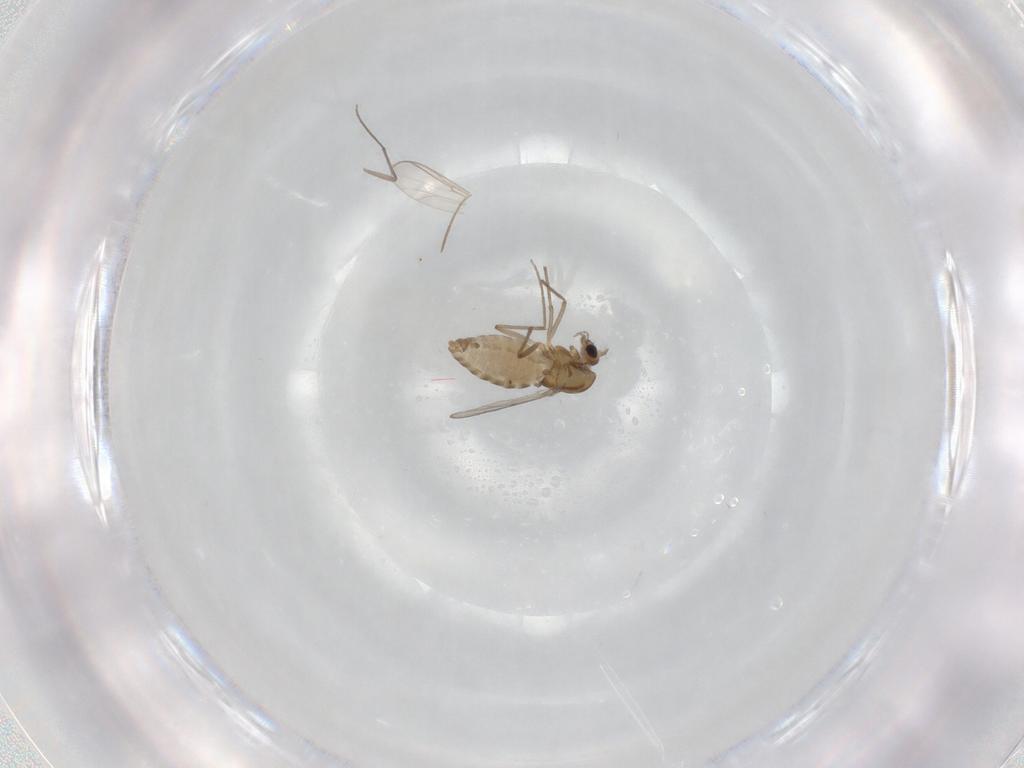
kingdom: Animalia
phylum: Arthropoda
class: Insecta
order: Diptera
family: Chironomidae
